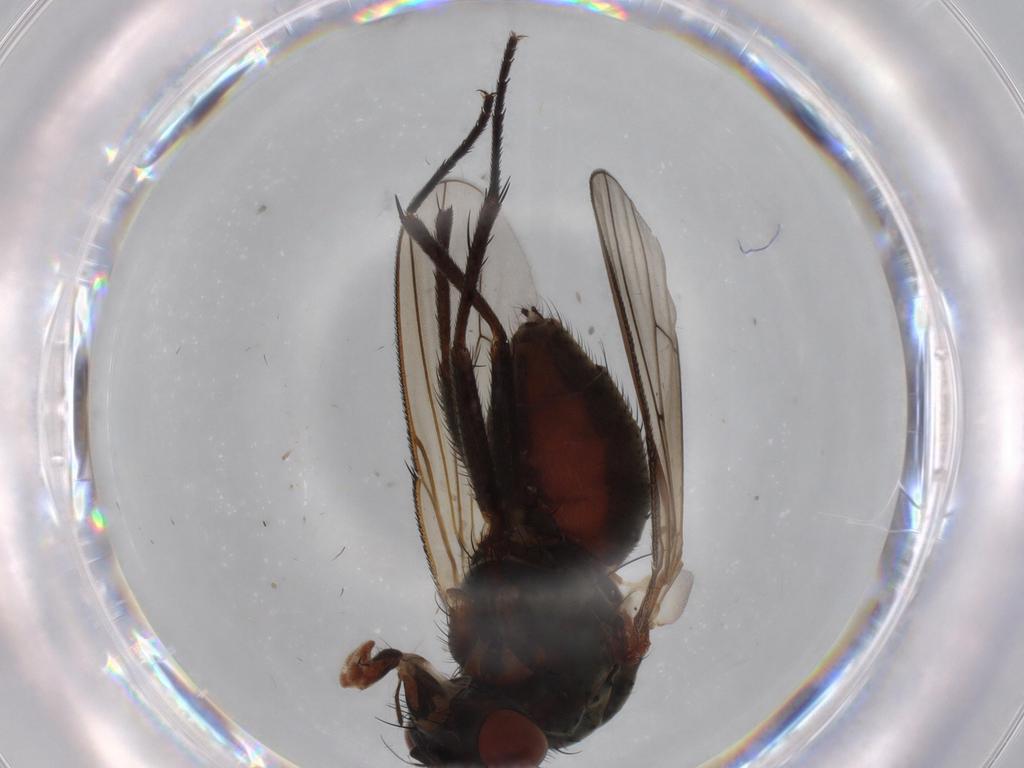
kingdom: Animalia
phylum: Arthropoda
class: Insecta
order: Diptera
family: Anthomyiidae
